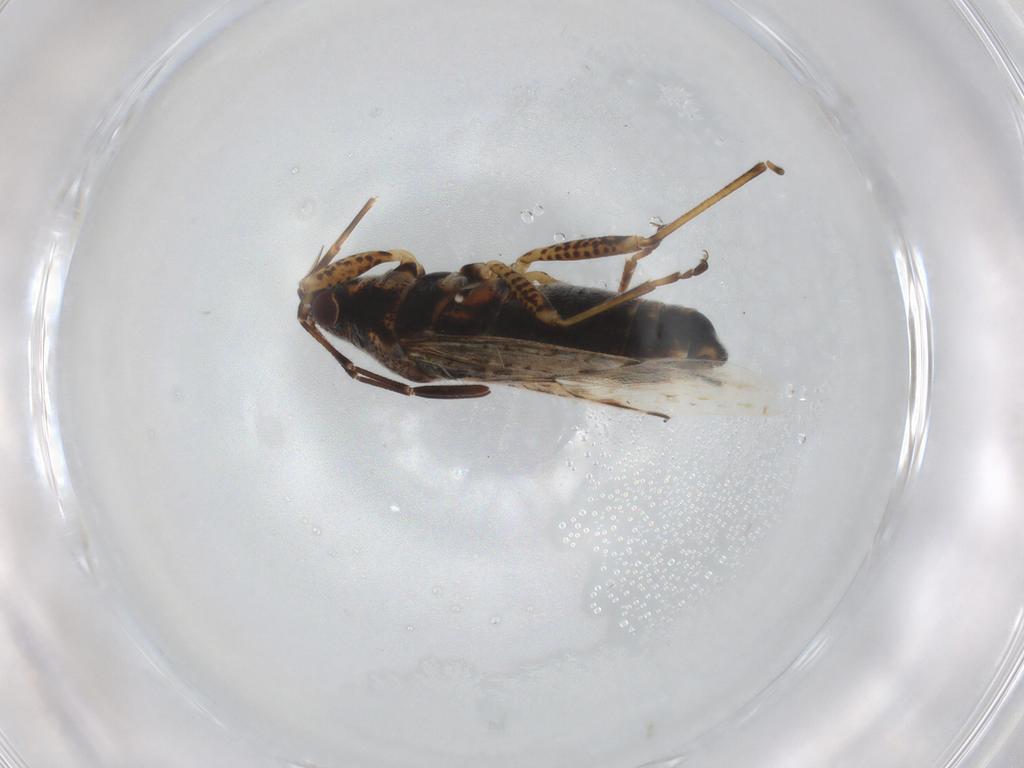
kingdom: Animalia
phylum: Arthropoda
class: Insecta
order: Hemiptera
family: Lygaeidae
